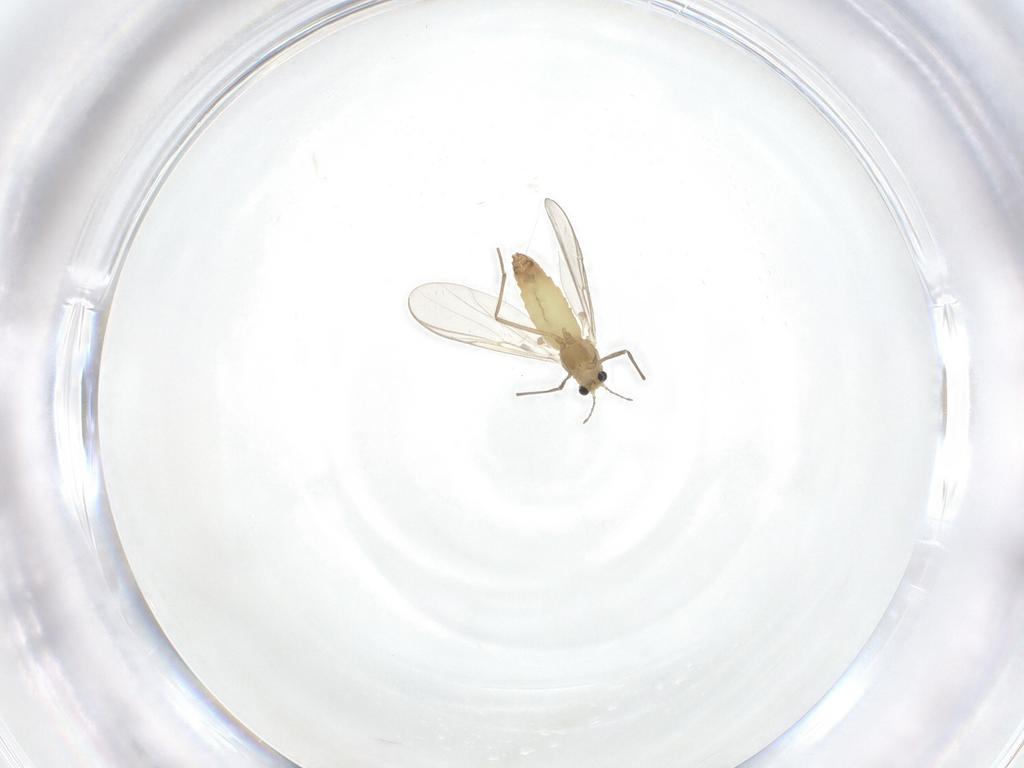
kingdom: Animalia
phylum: Arthropoda
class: Insecta
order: Diptera
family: Chironomidae
